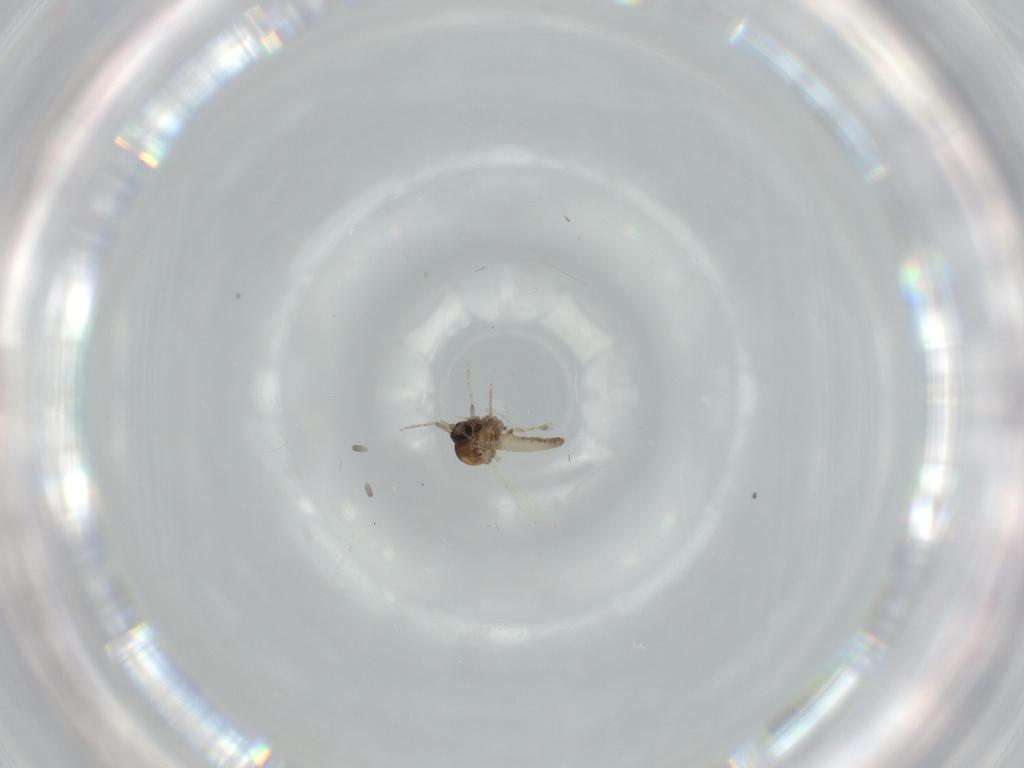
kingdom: Animalia
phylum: Arthropoda
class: Insecta
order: Diptera
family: Ceratopogonidae
